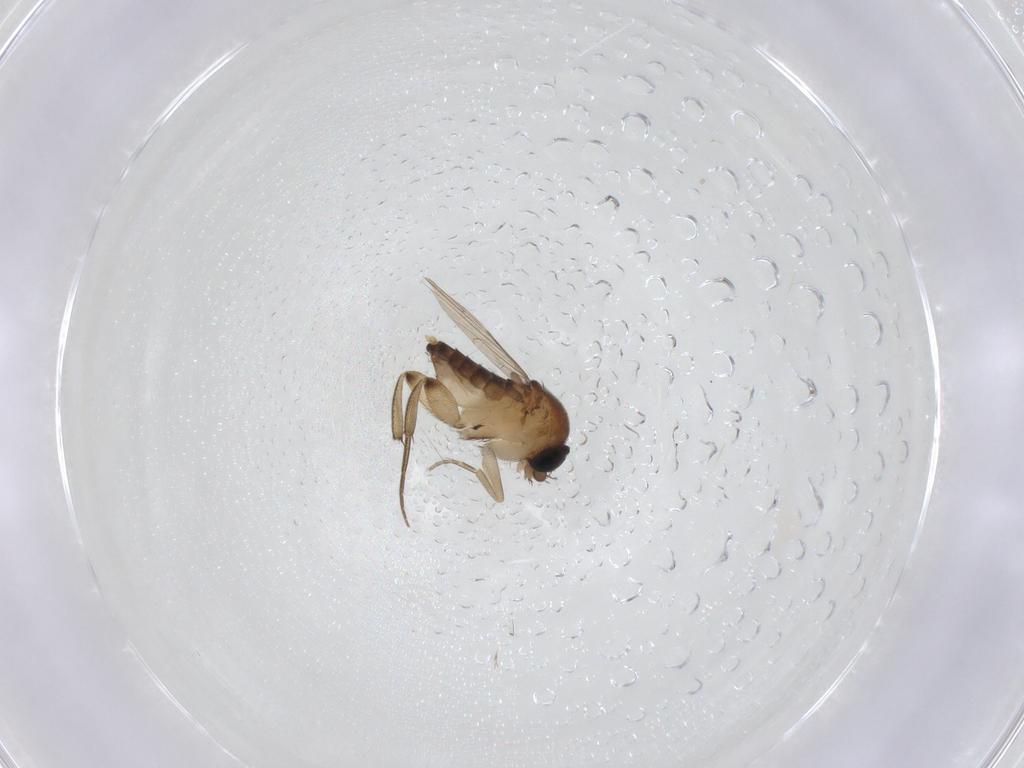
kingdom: Animalia
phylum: Arthropoda
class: Insecta
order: Diptera
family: Phoridae
